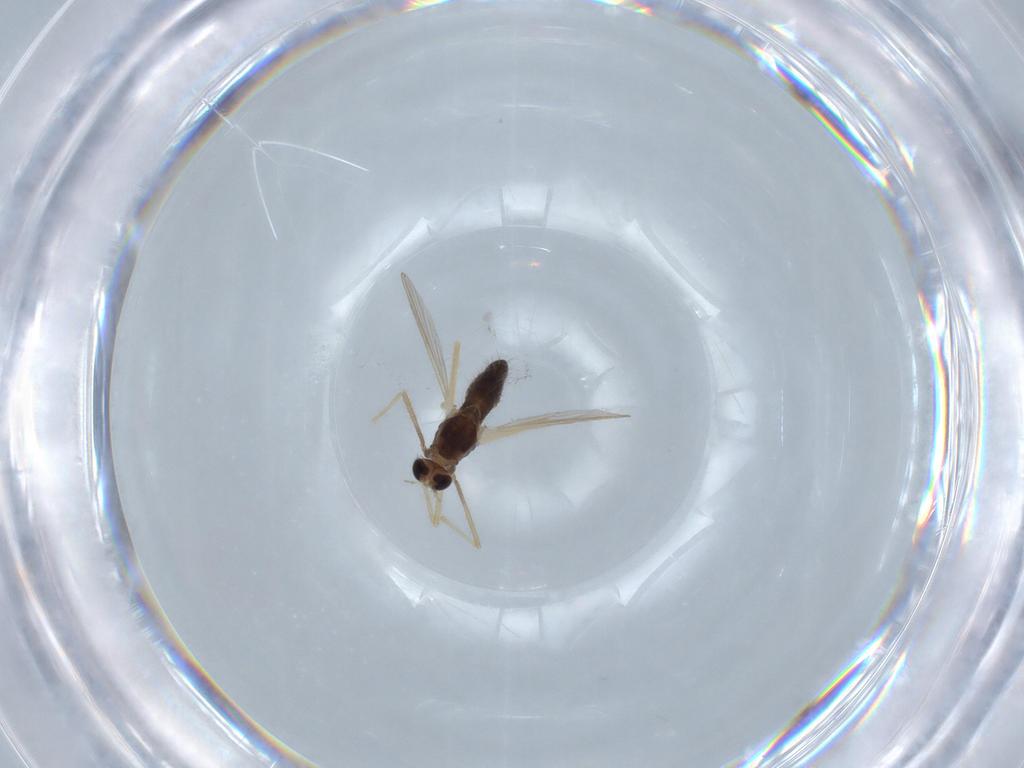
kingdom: Animalia
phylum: Arthropoda
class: Insecta
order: Diptera
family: Chironomidae
